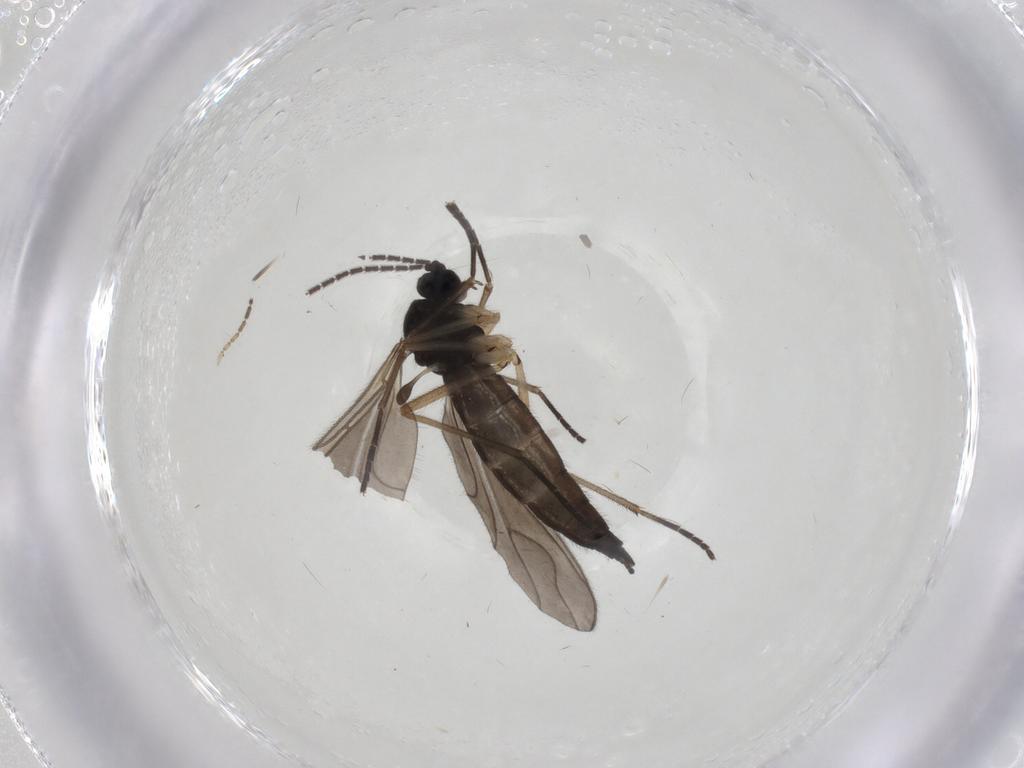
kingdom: Animalia
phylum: Arthropoda
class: Insecta
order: Diptera
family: Sciaridae
